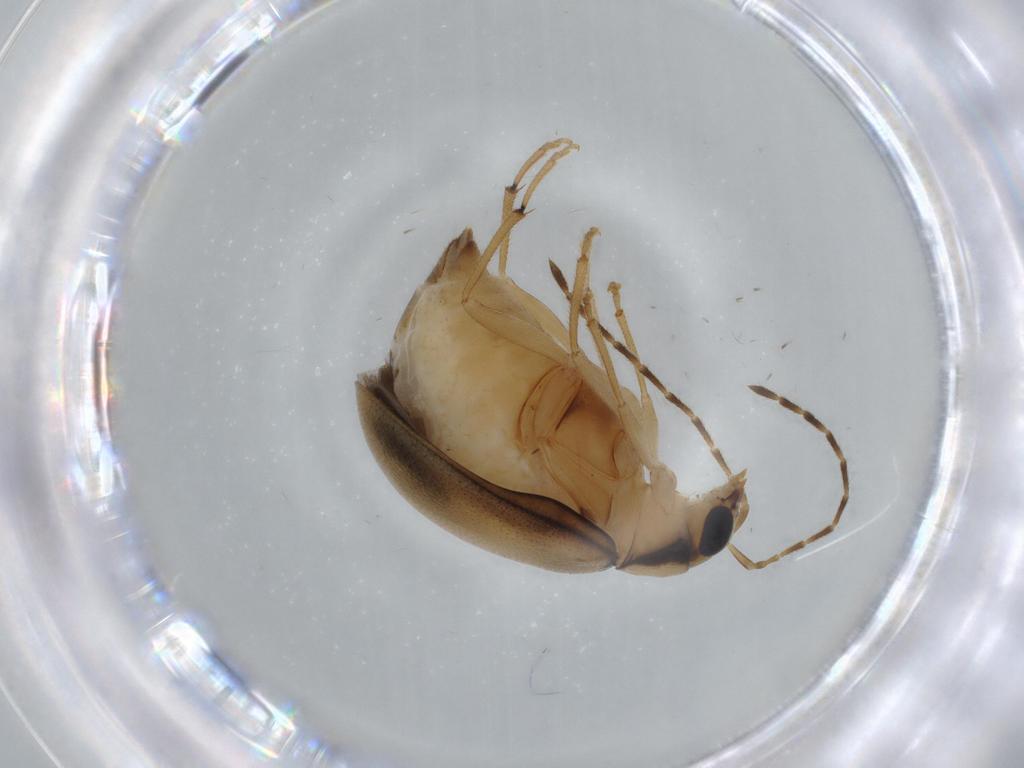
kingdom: Animalia
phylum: Arthropoda
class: Insecta
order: Coleoptera
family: Chrysomelidae
